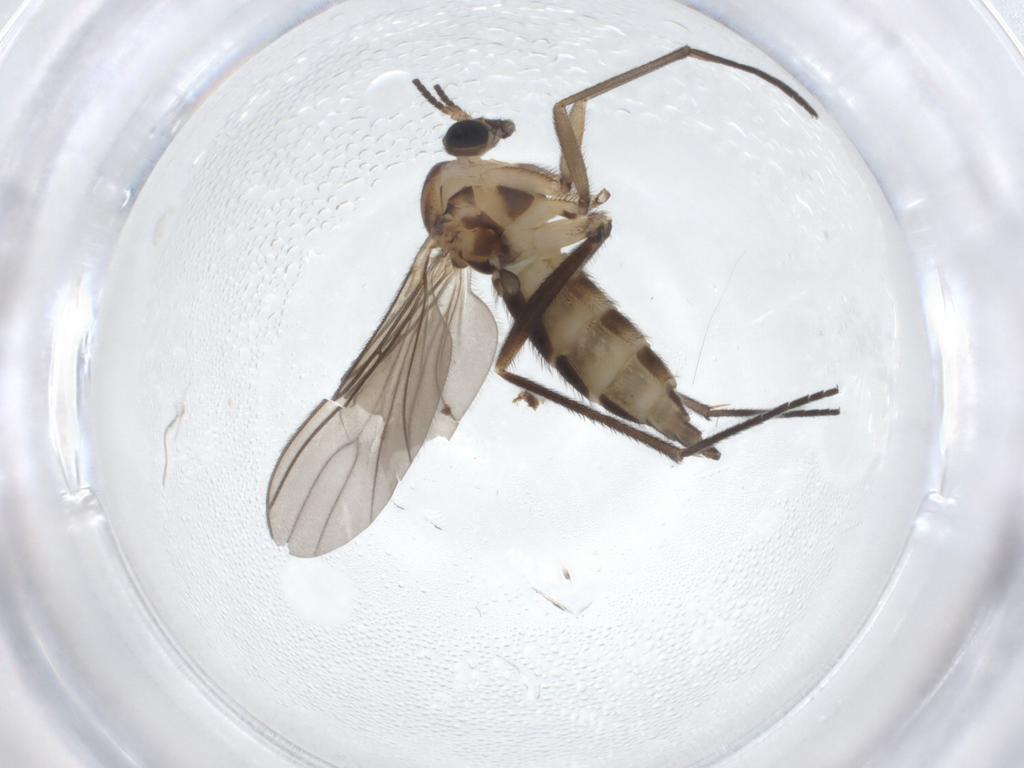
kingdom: Animalia
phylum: Arthropoda
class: Insecta
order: Diptera
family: Sciaridae
